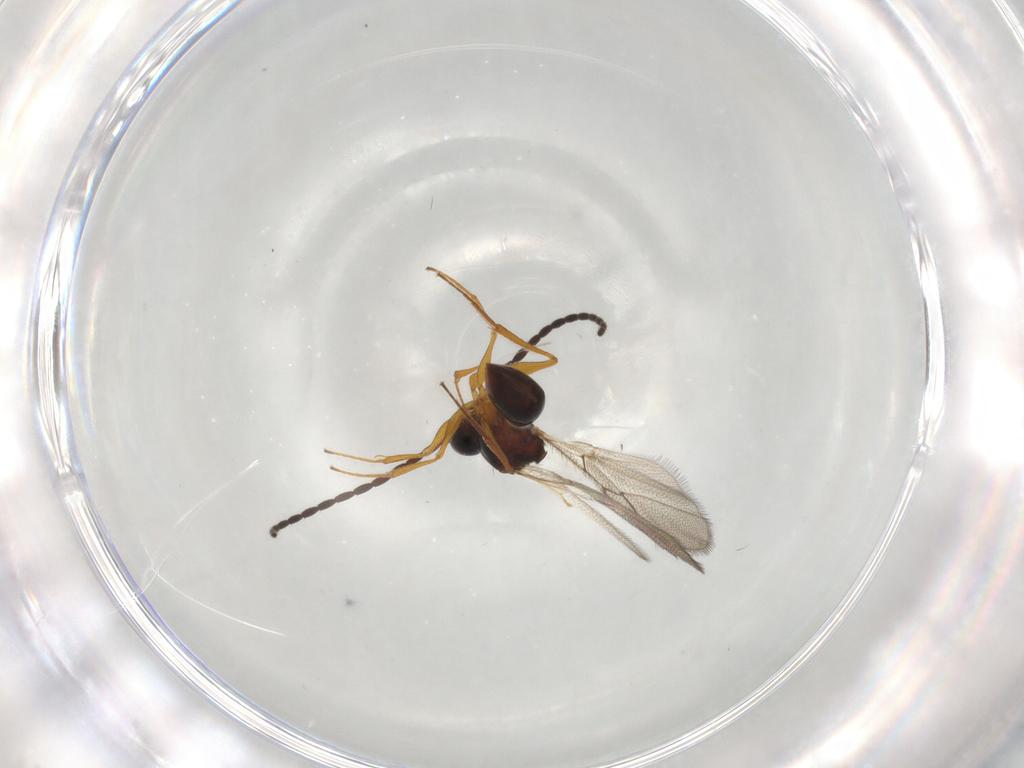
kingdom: Animalia
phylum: Arthropoda
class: Insecta
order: Hymenoptera
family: Figitidae
